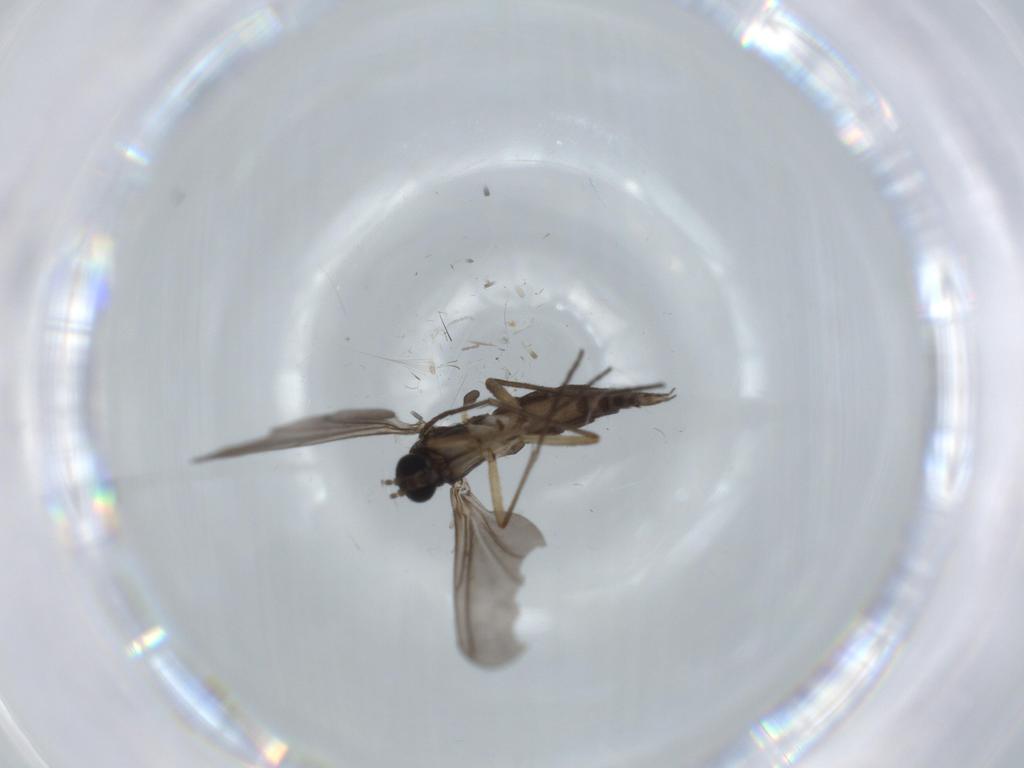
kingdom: Animalia
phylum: Arthropoda
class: Insecta
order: Diptera
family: Sciaridae
